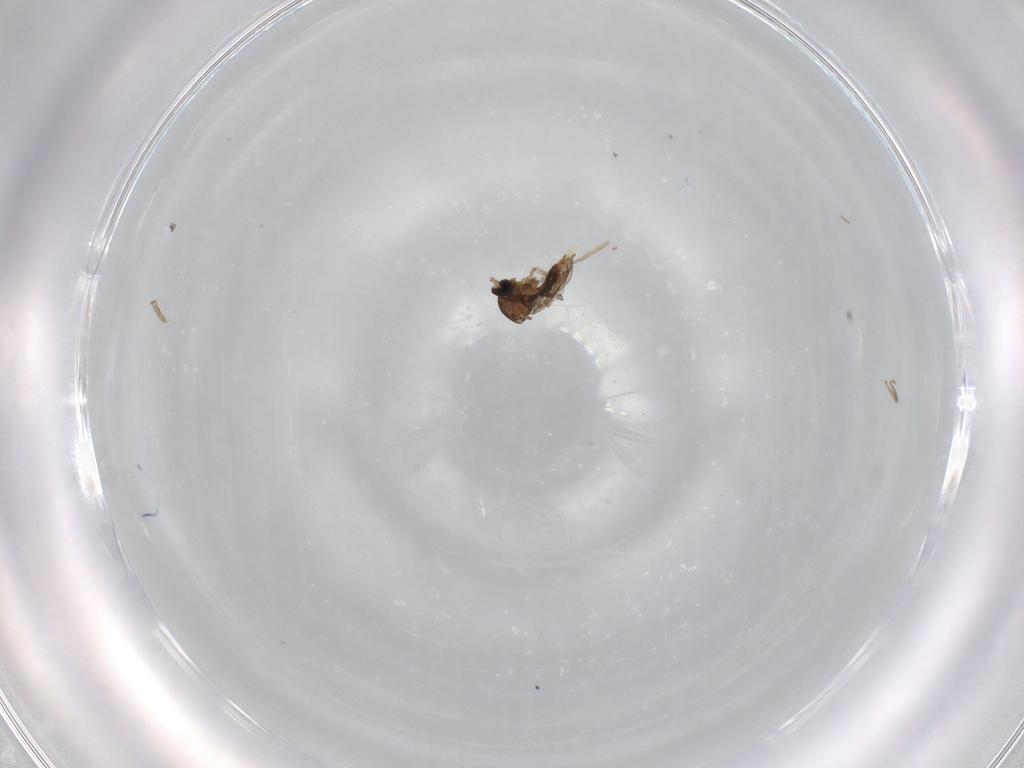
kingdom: Animalia
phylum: Arthropoda
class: Insecta
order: Diptera
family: Cecidomyiidae
